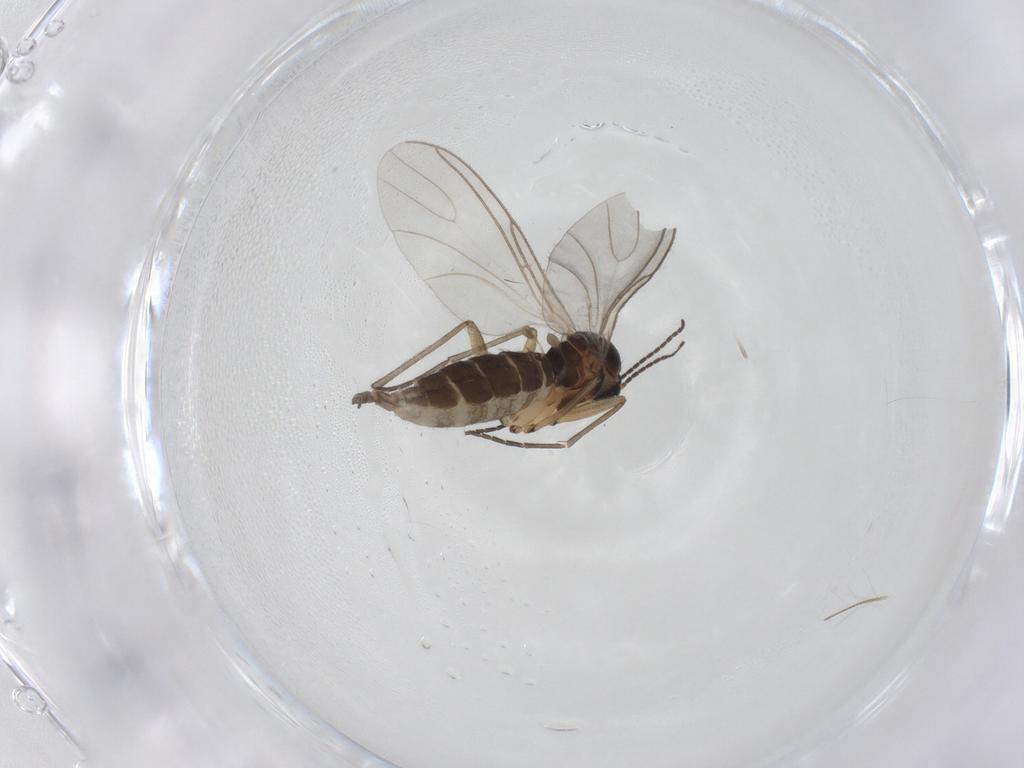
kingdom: Animalia
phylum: Arthropoda
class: Insecta
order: Diptera
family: Chironomidae
